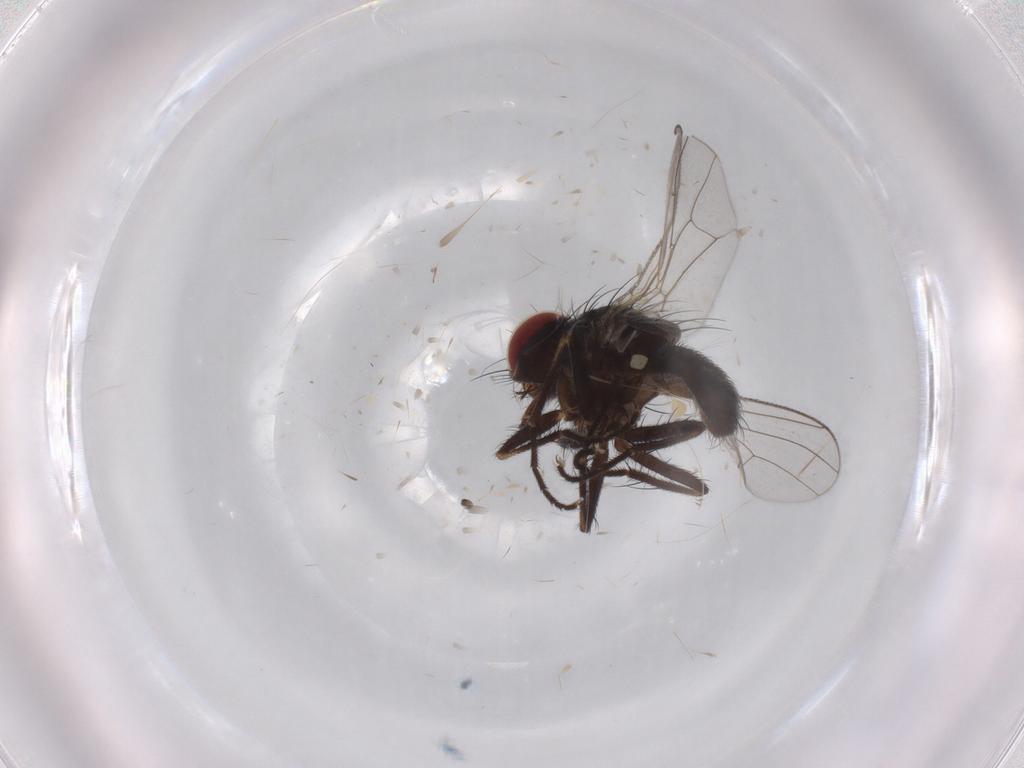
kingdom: Animalia
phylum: Arthropoda
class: Insecta
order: Diptera
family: Muscidae
